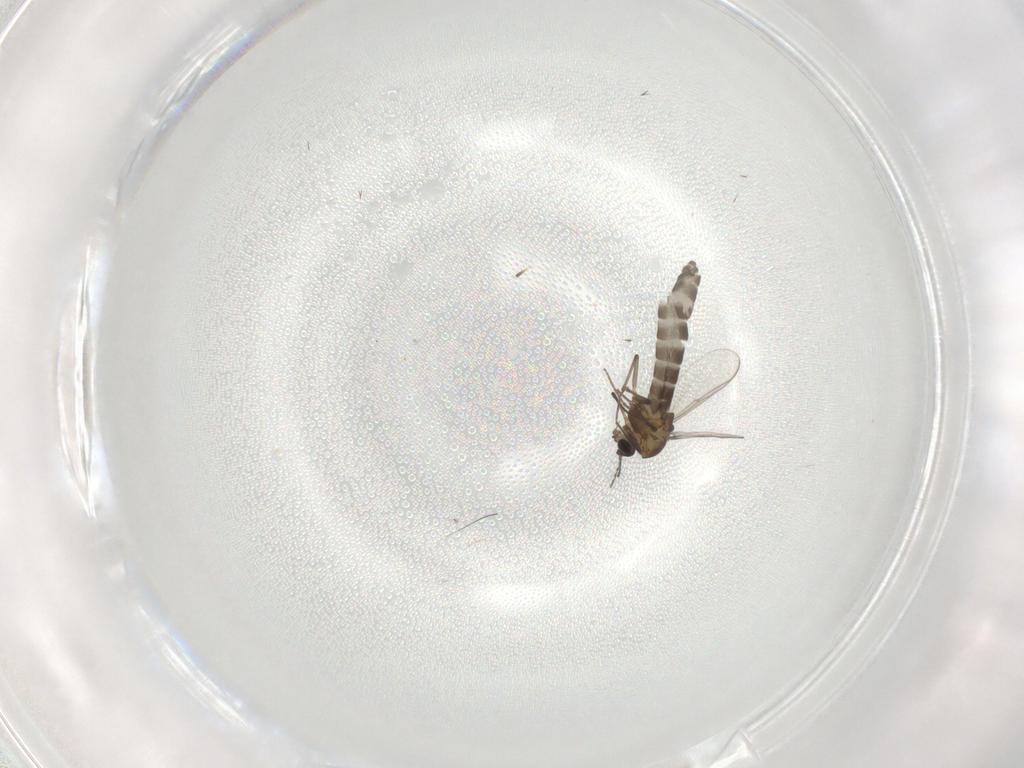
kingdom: Animalia
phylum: Arthropoda
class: Insecta
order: Diptera
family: Chironomidae
